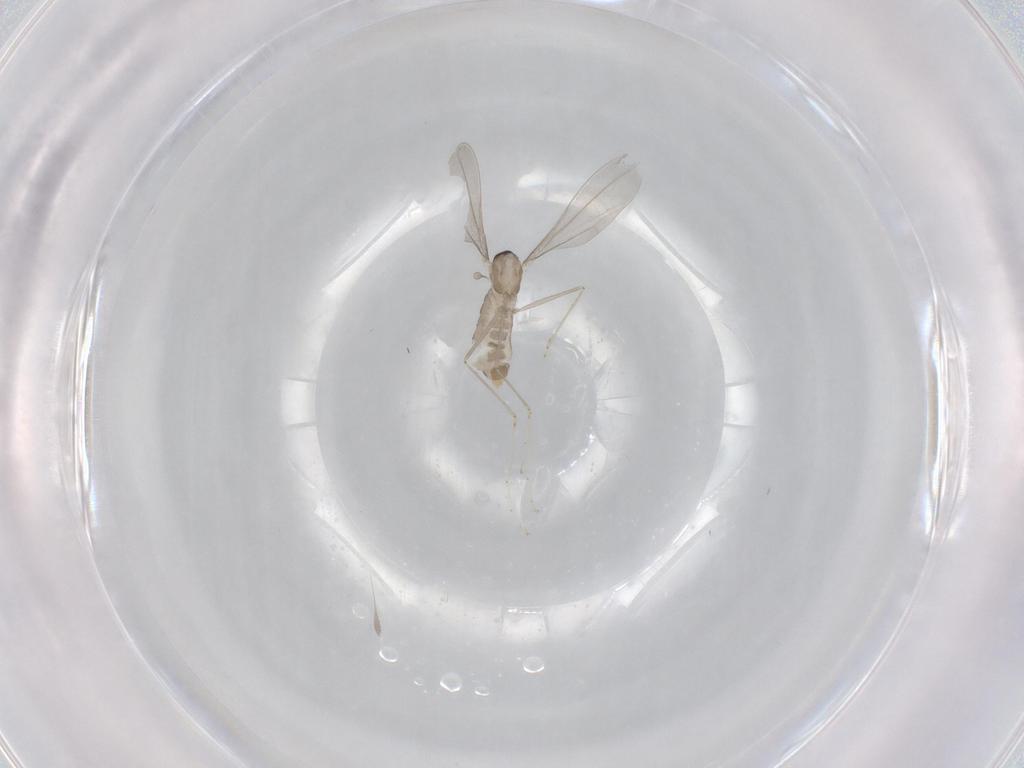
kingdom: Animalia
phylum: Arthropoda
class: Insecta
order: Diptera
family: Cecidomyiidae
